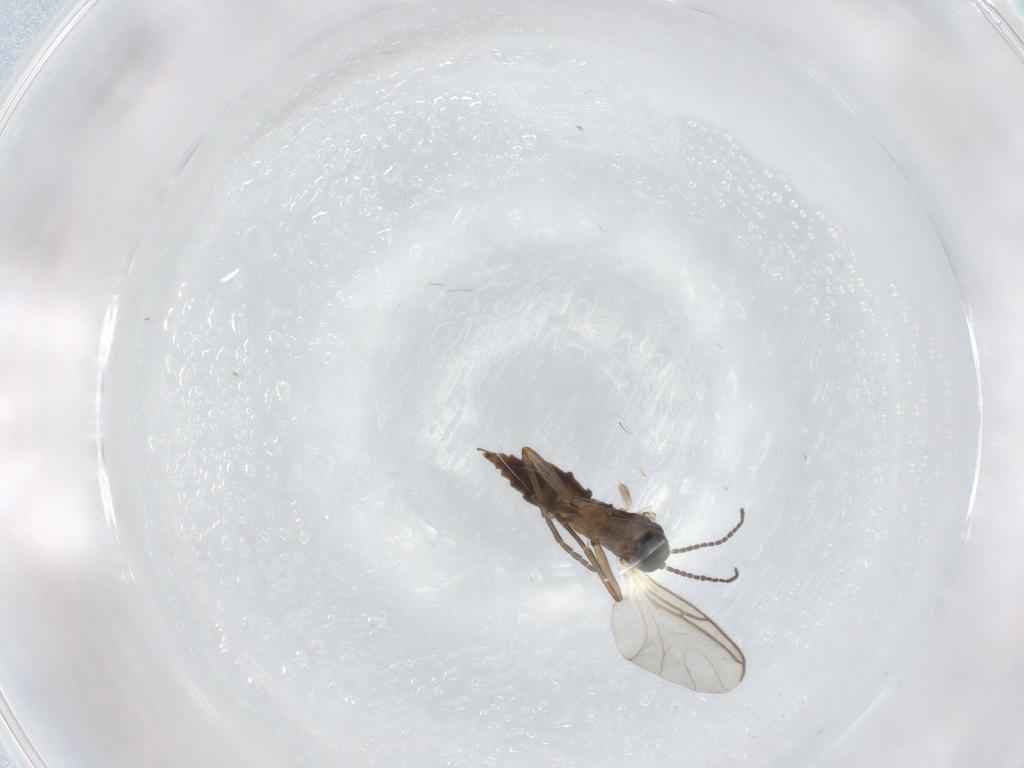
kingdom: Animalia
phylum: Arthropoda
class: Insecta
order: Diptera
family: Sciaridae
